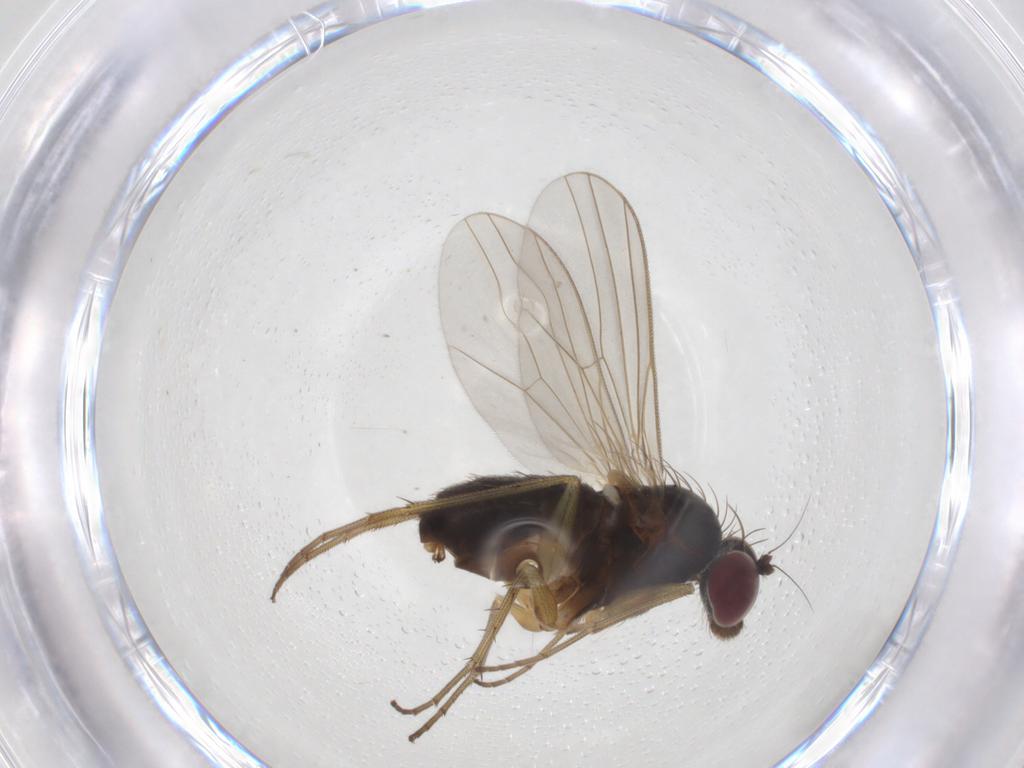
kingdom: Animalia
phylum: Arthropoda
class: Insecta
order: Diptera
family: Dolichopodidae
